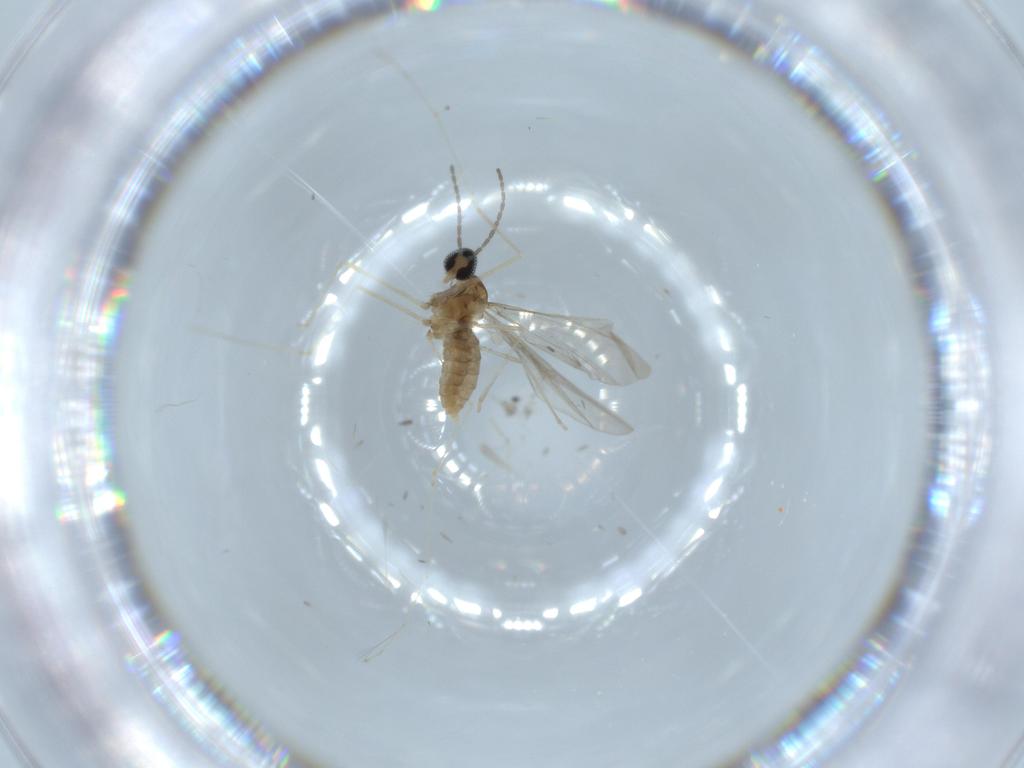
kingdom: Animalia
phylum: Arthropoda
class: Insecta
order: Diptera
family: Cecidomyiidae
